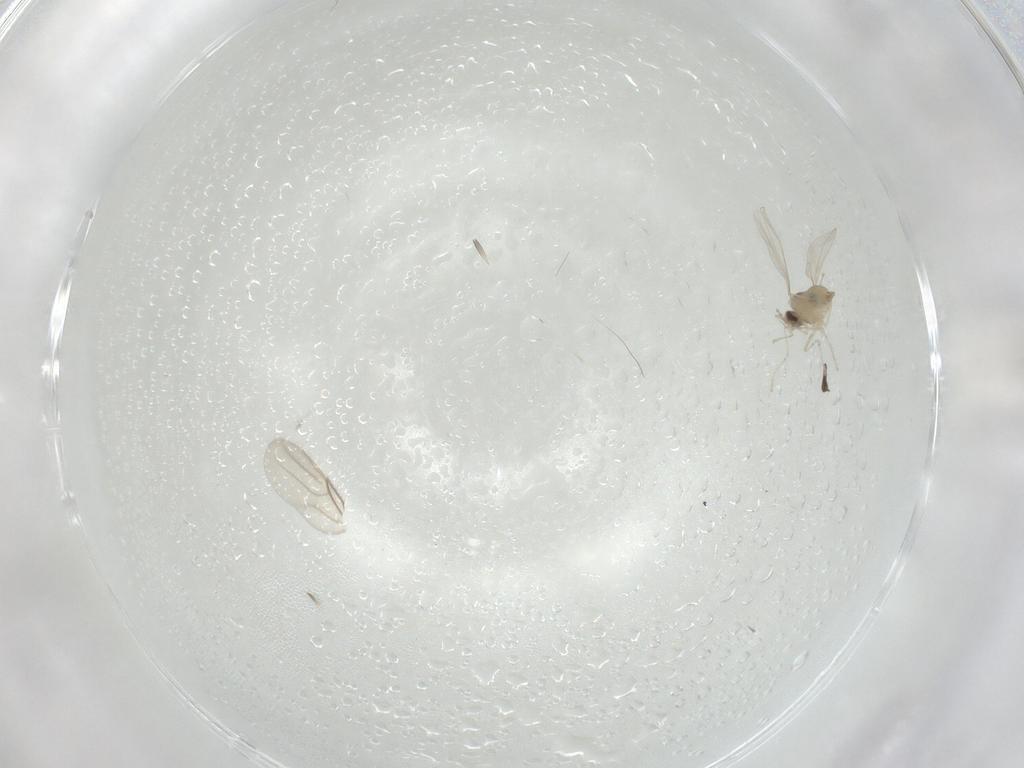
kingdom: Animalia
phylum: Arthropoda
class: Insecta
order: Diptera
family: Cecidomyiidae
